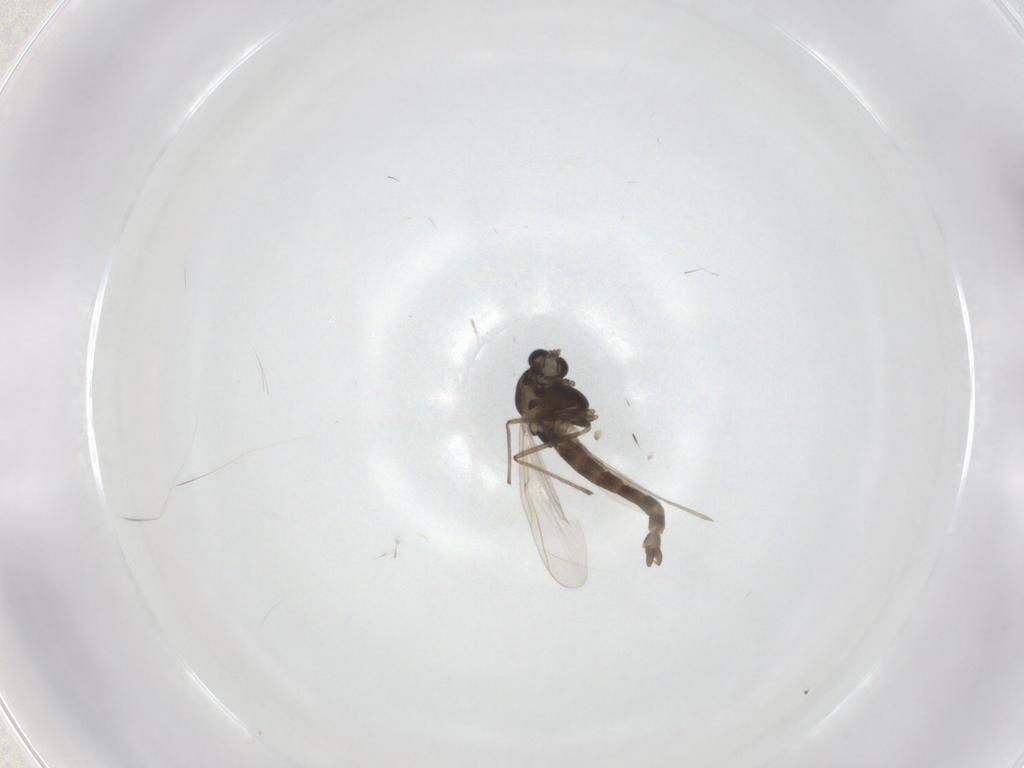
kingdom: Animalia
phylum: Arthropoda
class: Insecta
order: Diptera
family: Chironomidae
